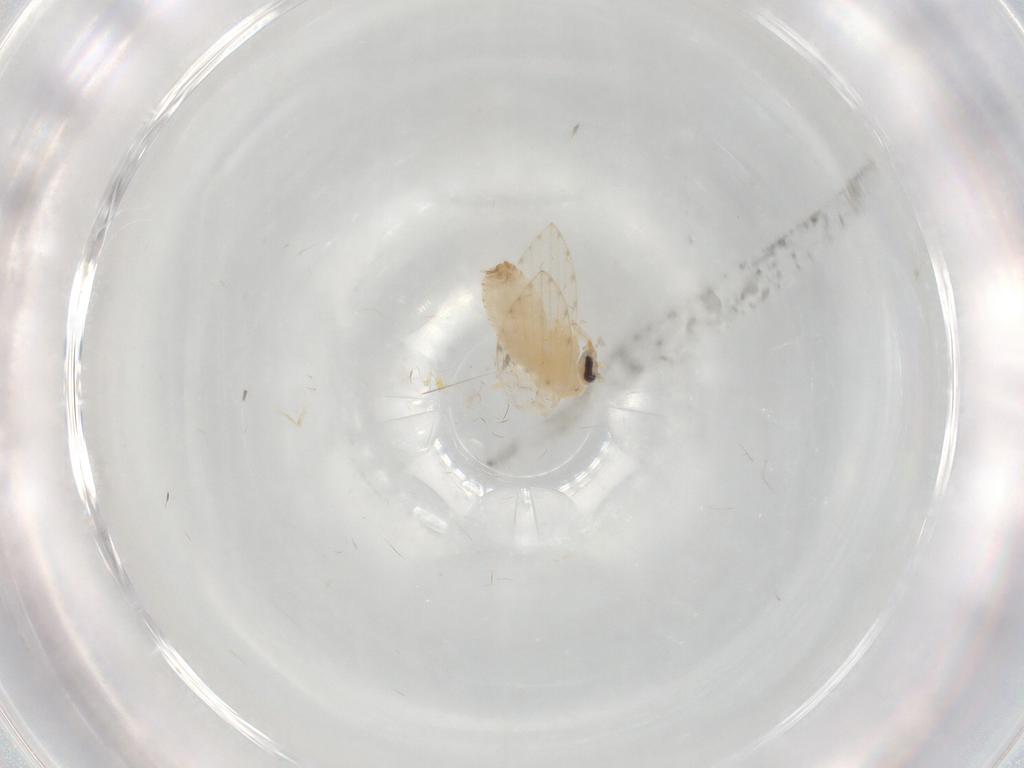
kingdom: Animalia
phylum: Arthropoda
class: Insecta
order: Diptera
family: Psychodidae
